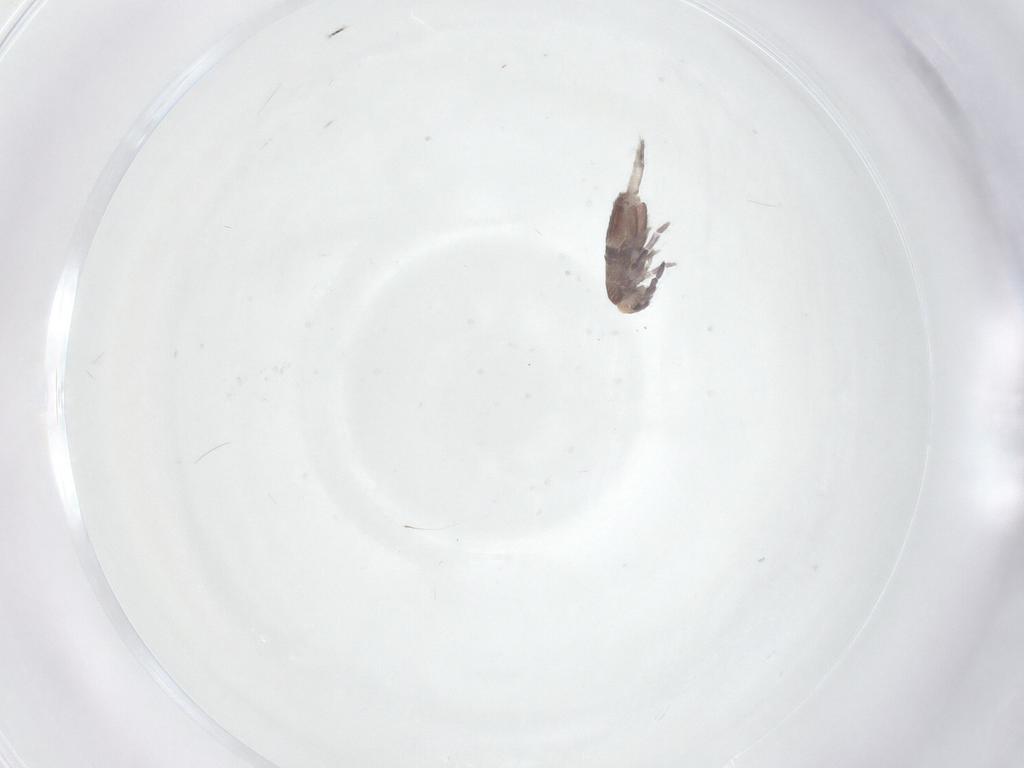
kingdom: Animalia
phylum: Arthropoda
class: Collembola
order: Entomobryomorpha
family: Entomobryidae
